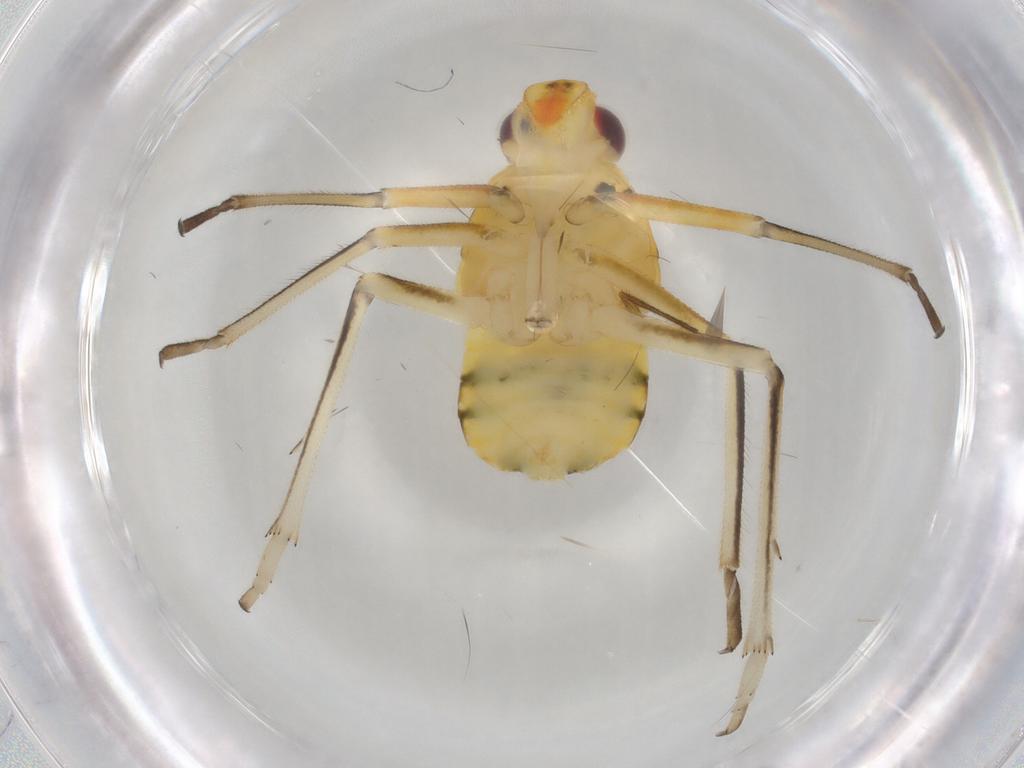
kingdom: Animalia
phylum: Arthropoda
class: Insecta
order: Hemiptera
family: Caliscelidae
